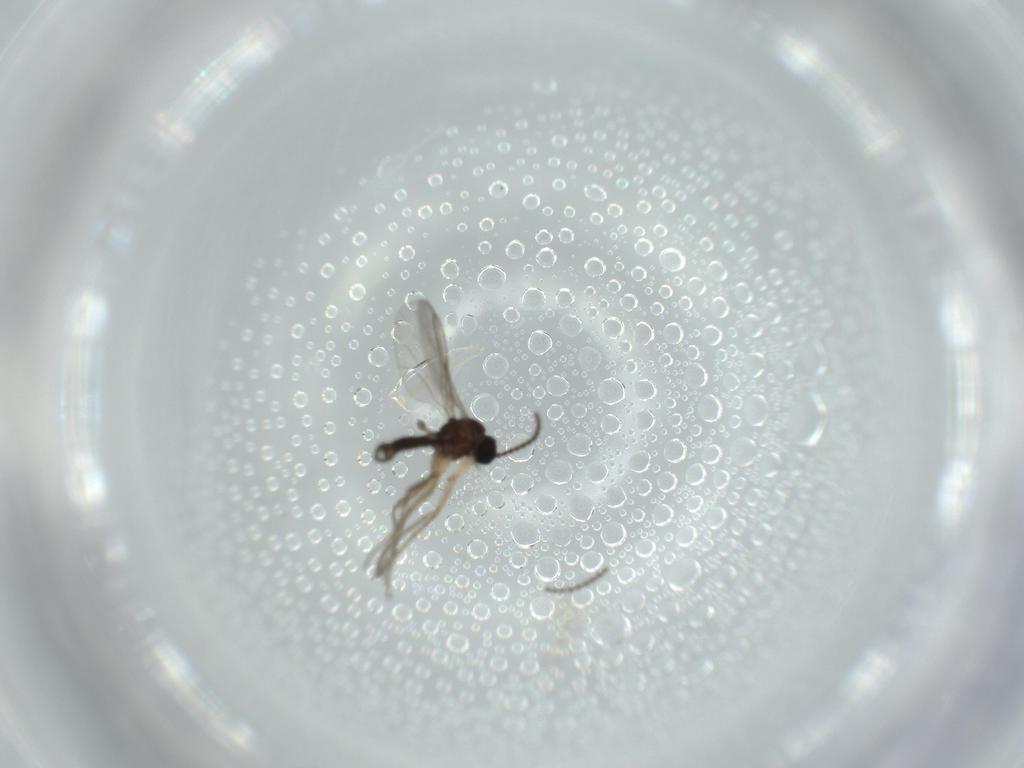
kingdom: Animalia
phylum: Arthropoda
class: Insecta
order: Diptera
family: Sciaridae
